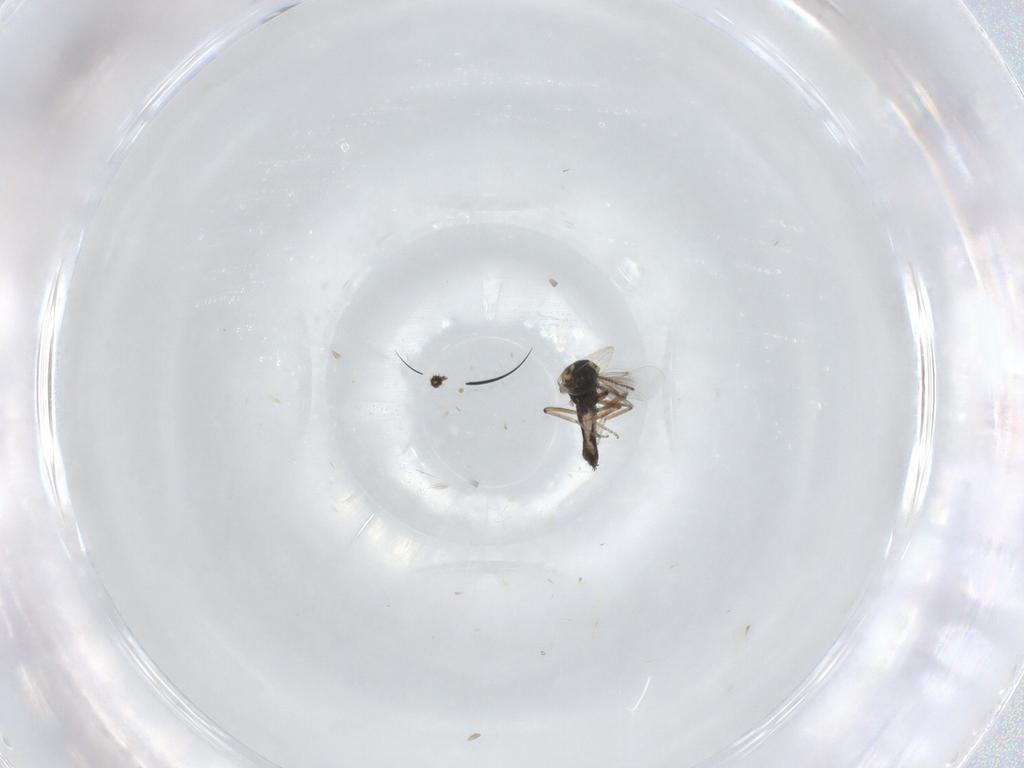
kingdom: Animalia
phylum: Arthropoda
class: Insecta
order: Diptera
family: Ceratopogonidae
